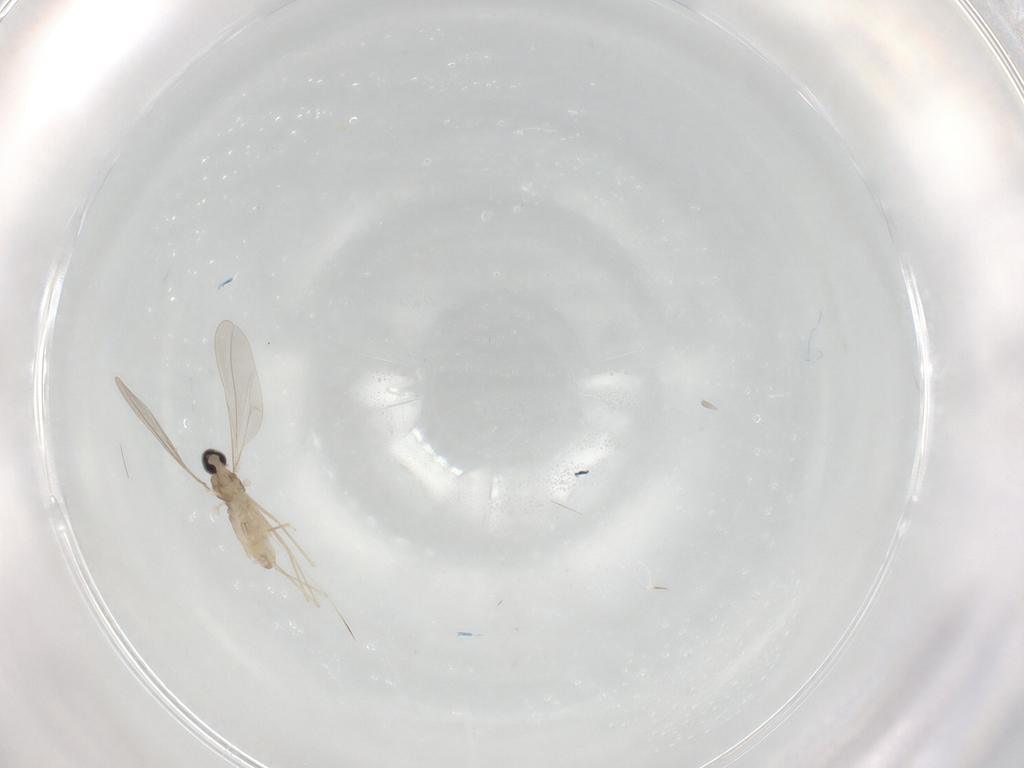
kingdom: Animalia
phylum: Arthropoda
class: Insecta
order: Diptera
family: Cecidomyiidae
